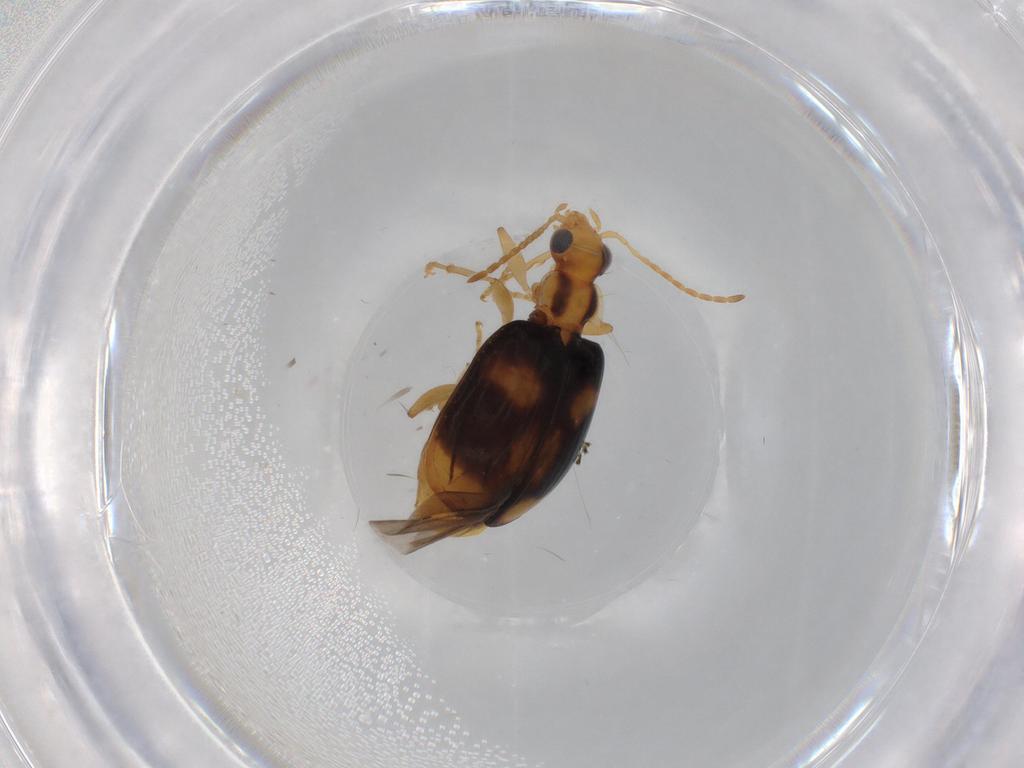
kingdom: Animalia
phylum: Arthropoda
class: Insecta
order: Coleoptera
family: Carabidae
